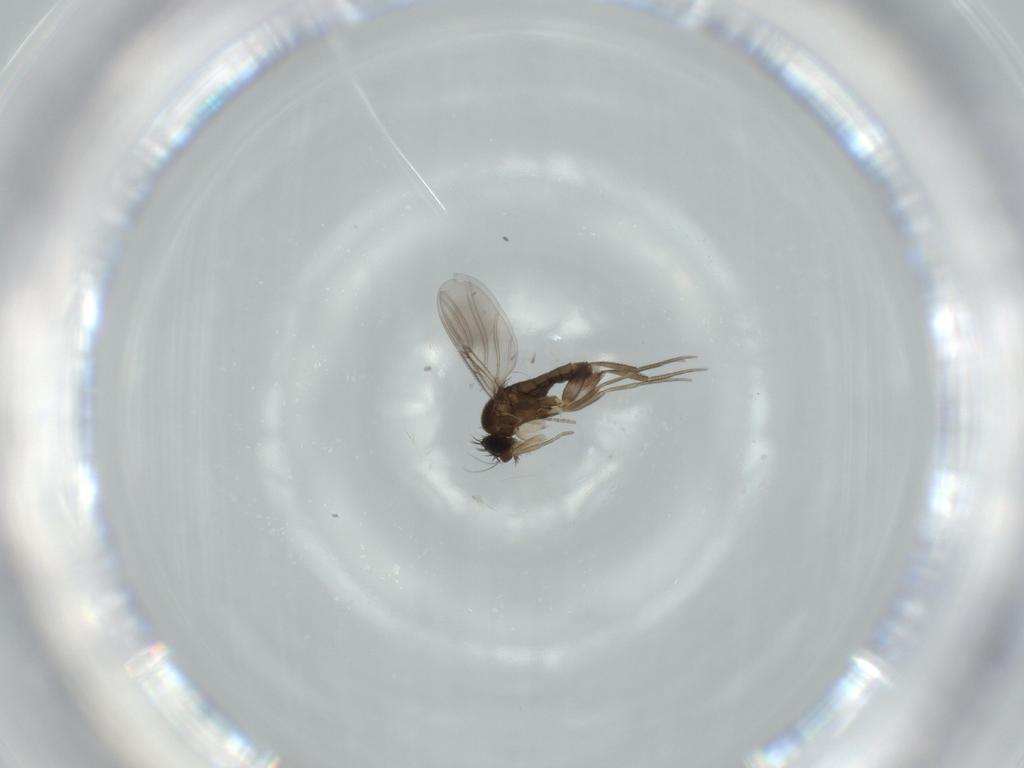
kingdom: Animalia
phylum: Arthropoda
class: Insecta
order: Diptera
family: Phoridae
